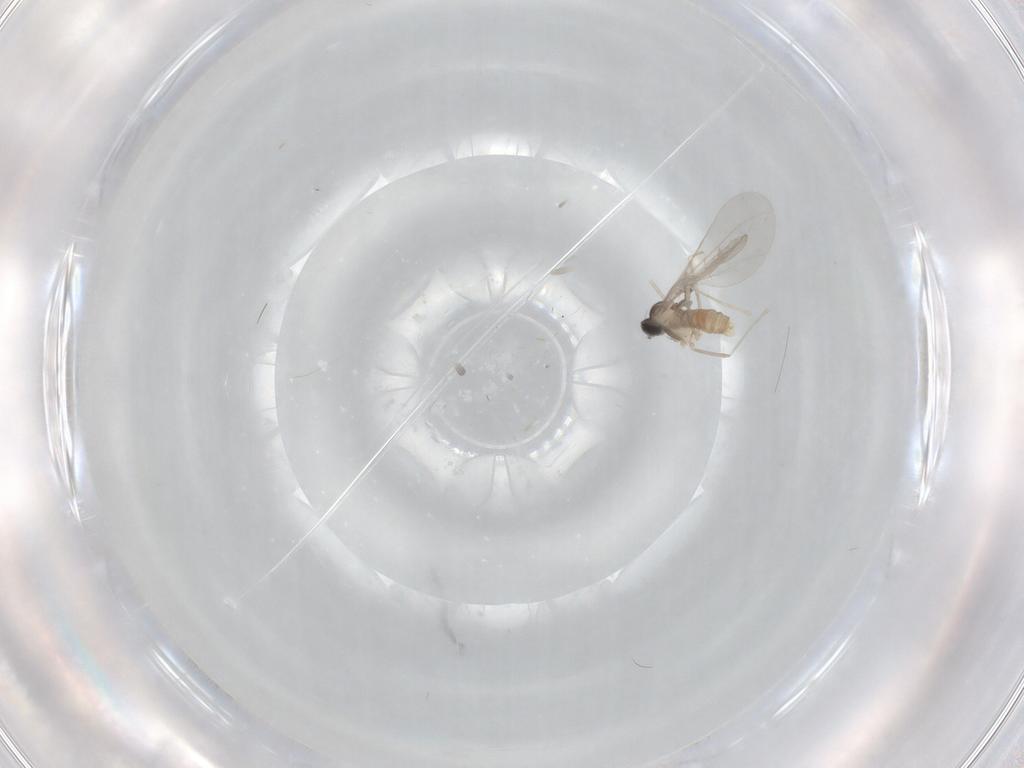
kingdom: Animalia
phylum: Arthropoda
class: Insecta
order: Diptera
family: Cecidomyiidae
